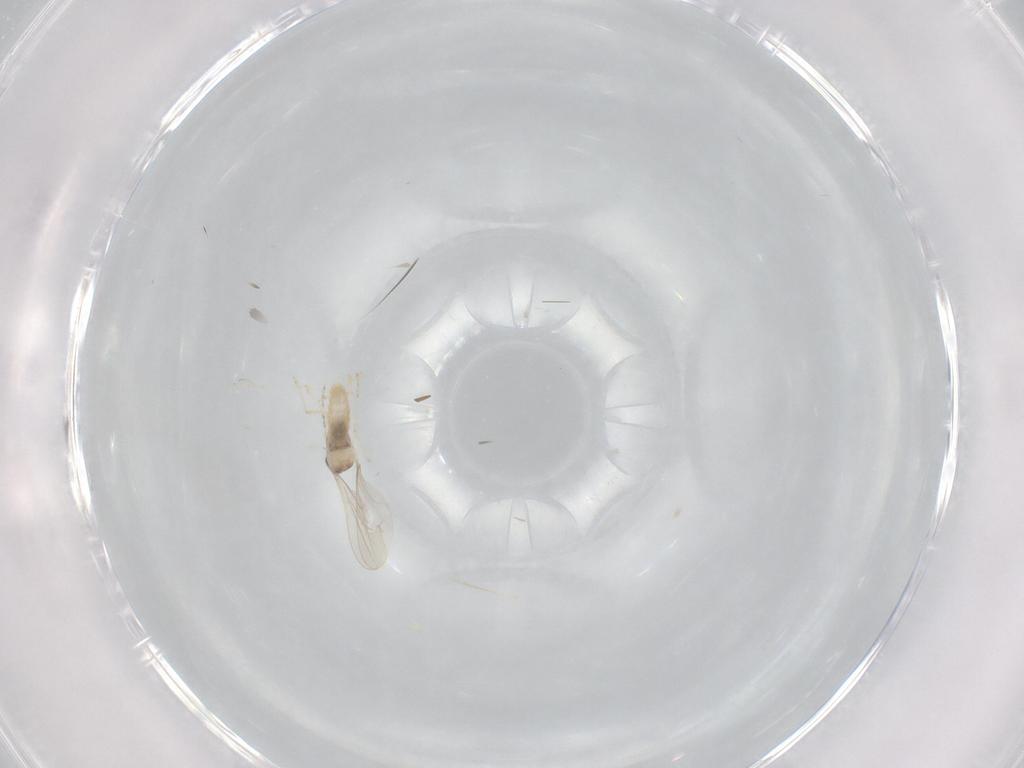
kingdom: Animalia
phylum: Arthropoda
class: Insecta
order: Diptera
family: Cecidomyiidae
